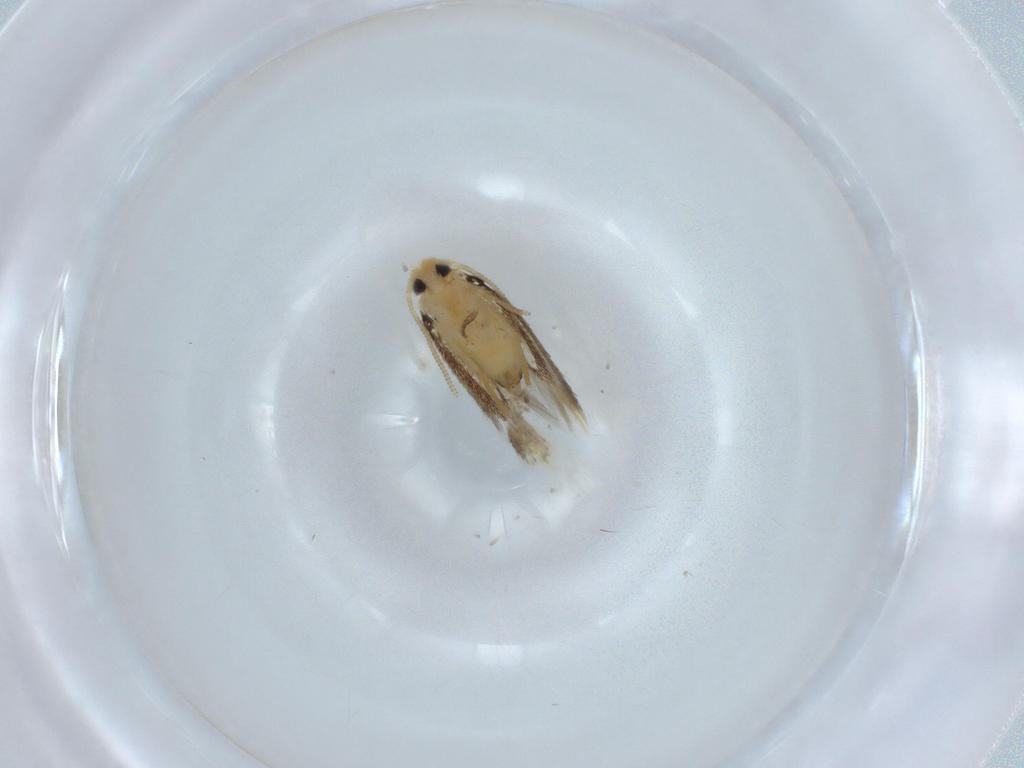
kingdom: Animalia
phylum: Arthropoda
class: Insecta
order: Lepidoptera
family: Nepticulidae
